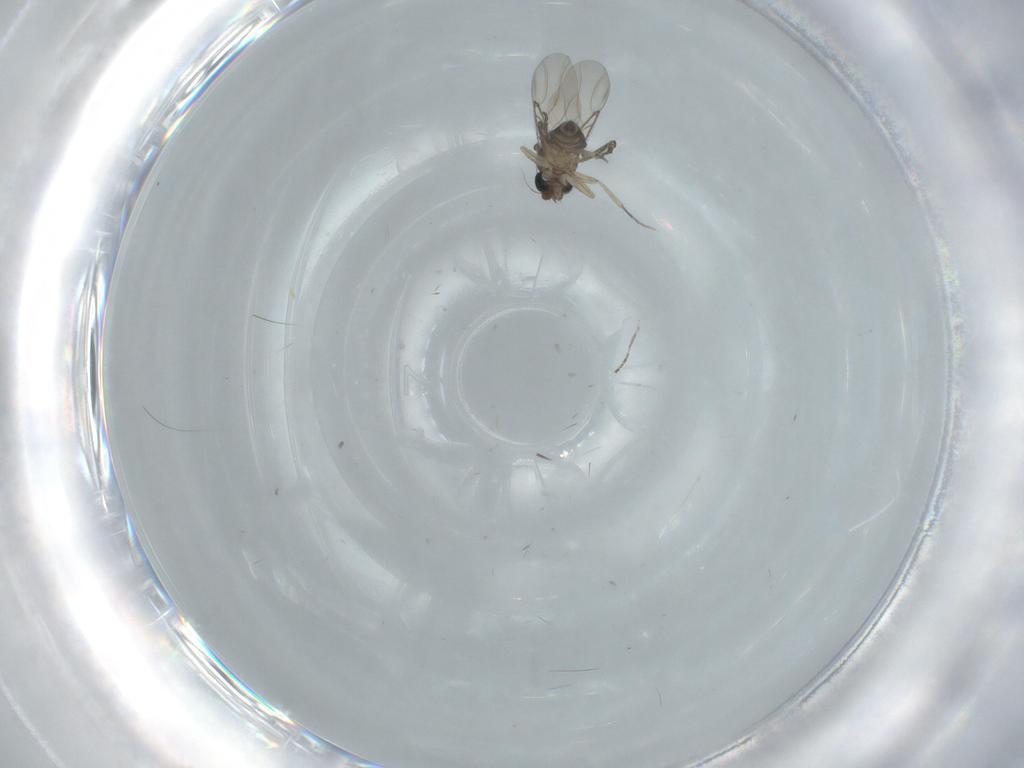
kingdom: Animalia
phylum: Arthropoda
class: Insecta
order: Diptera
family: Phoridae
